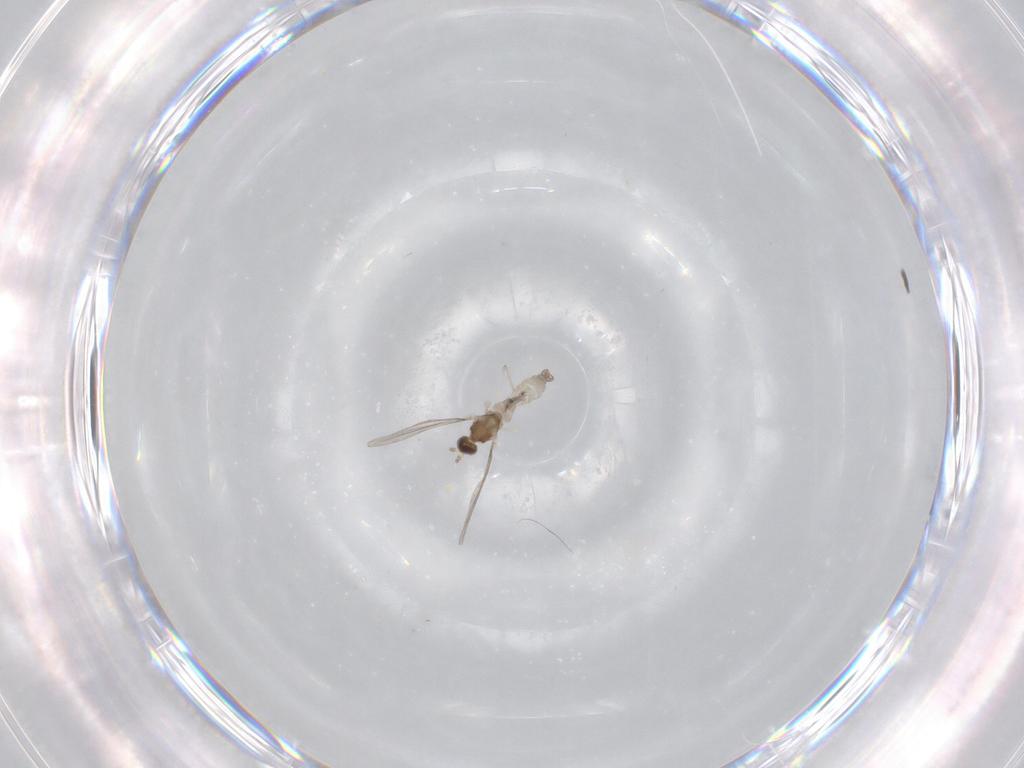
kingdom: Animalia
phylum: Arthropoda
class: Insecta
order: Diptera
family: Cecidomyiidae
